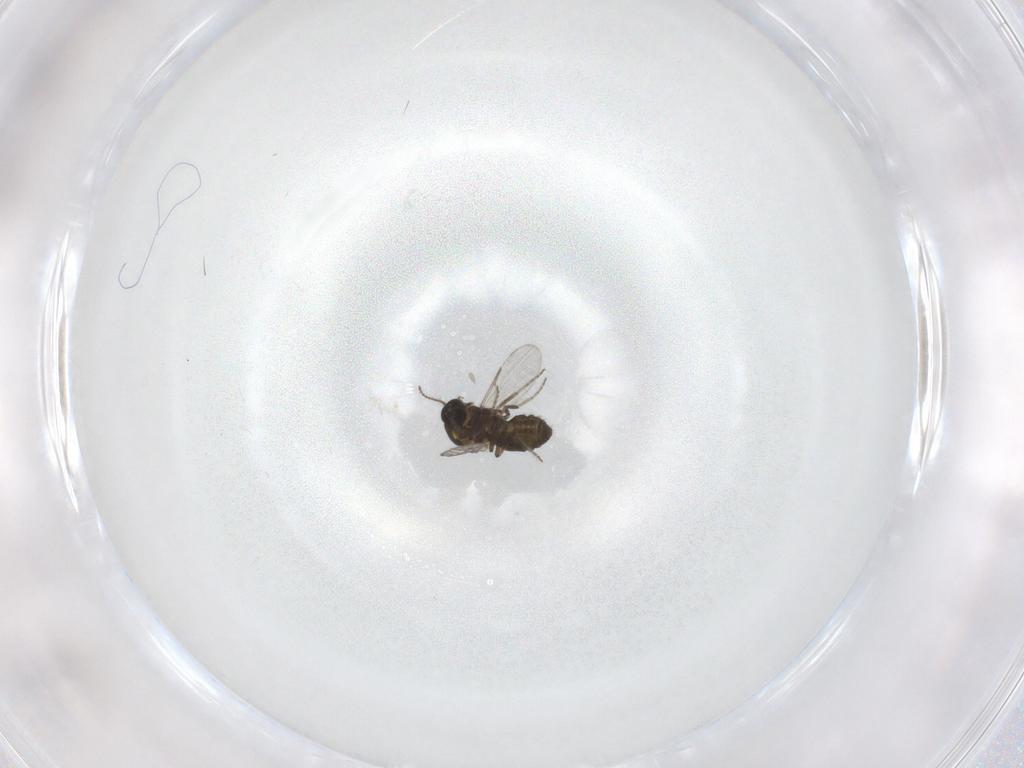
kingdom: Animalia
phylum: Arthropoda
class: Insecta
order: Diptera
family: Ceratopogonidae
